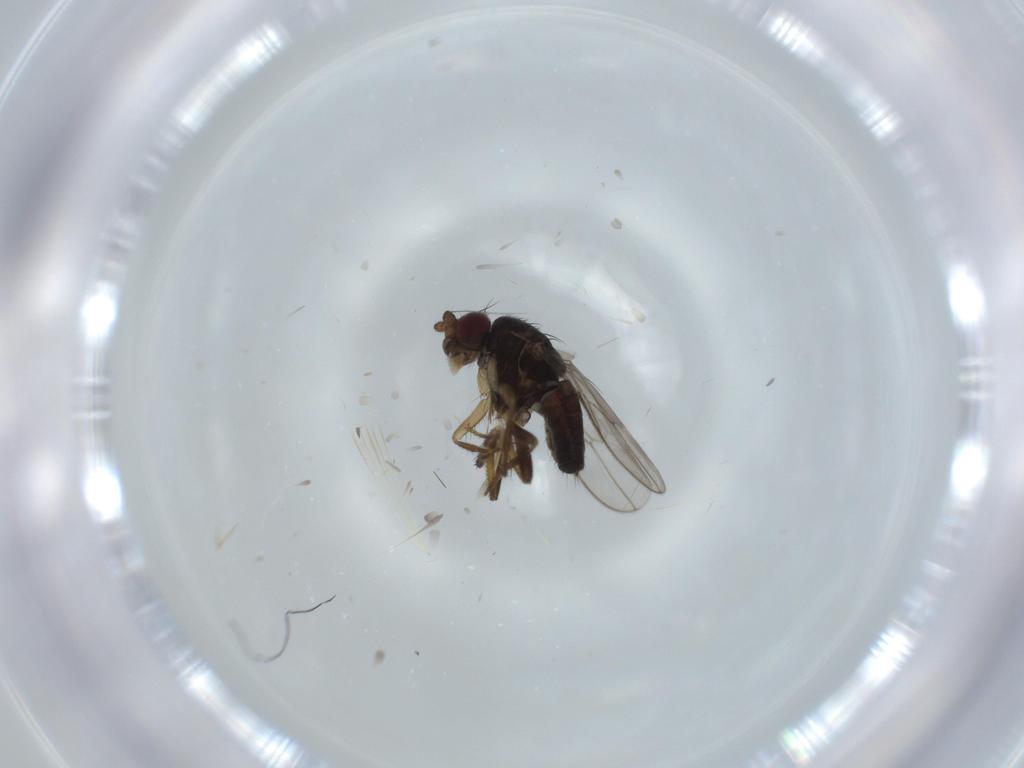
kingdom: Animalia
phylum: Arthropoda
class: Insecta
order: Diptera
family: Sphaeroceridae
